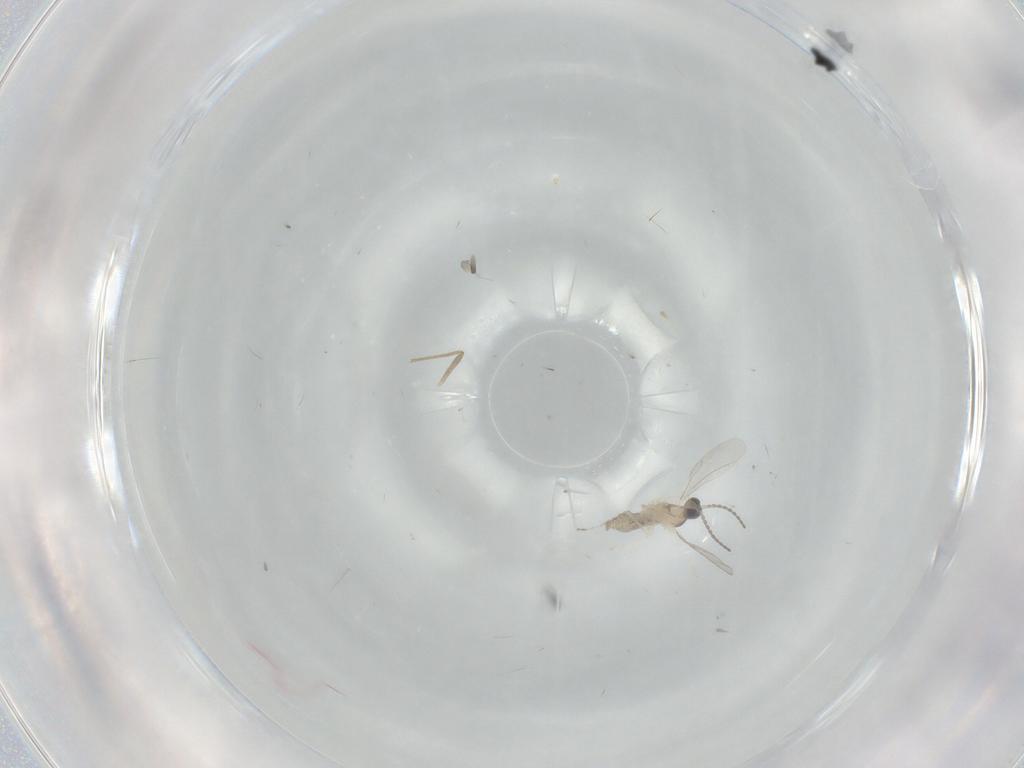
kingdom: Animalia
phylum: Arthropoda
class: Insecta
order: Diptera
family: Chironomidae
